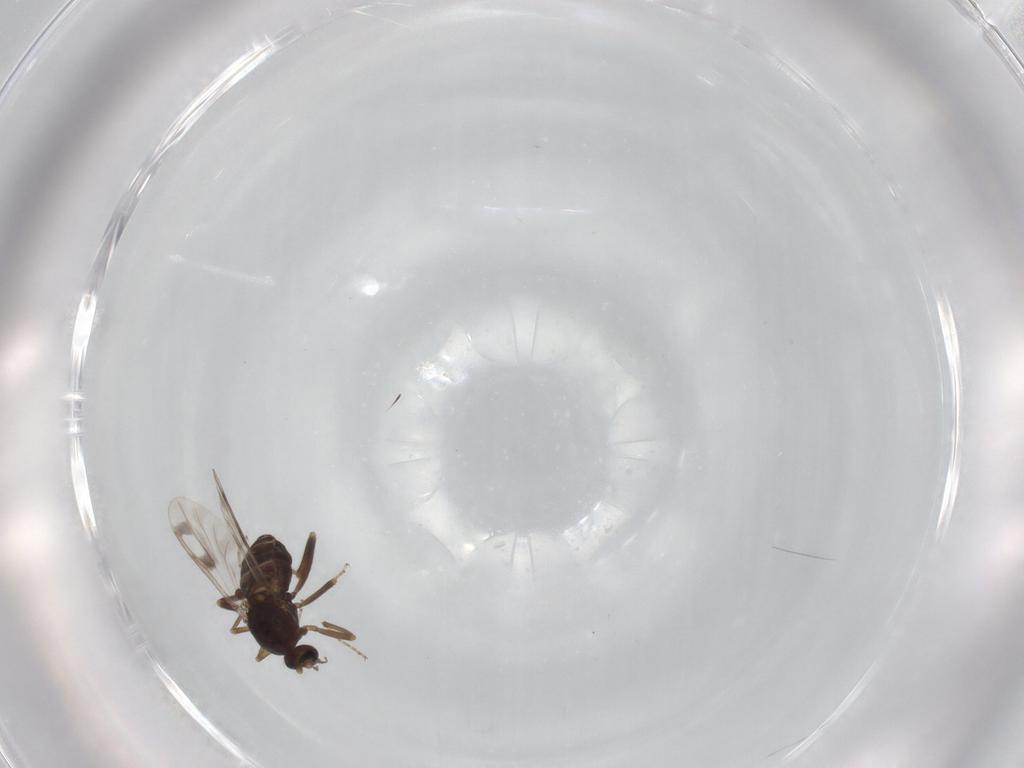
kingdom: Animalia
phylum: Arthropoda
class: Insecta
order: Diptera
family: Ceratopogonidae
